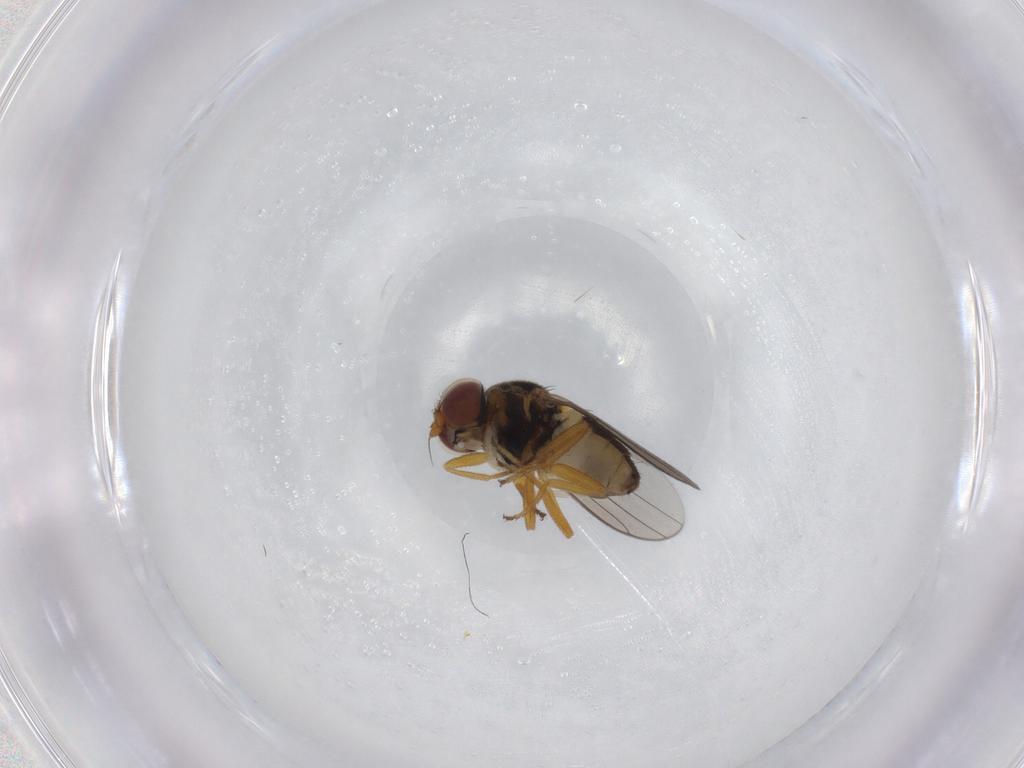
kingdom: Animalia
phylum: Arthropoda
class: Insecta
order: Diptera
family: Chloropidae
